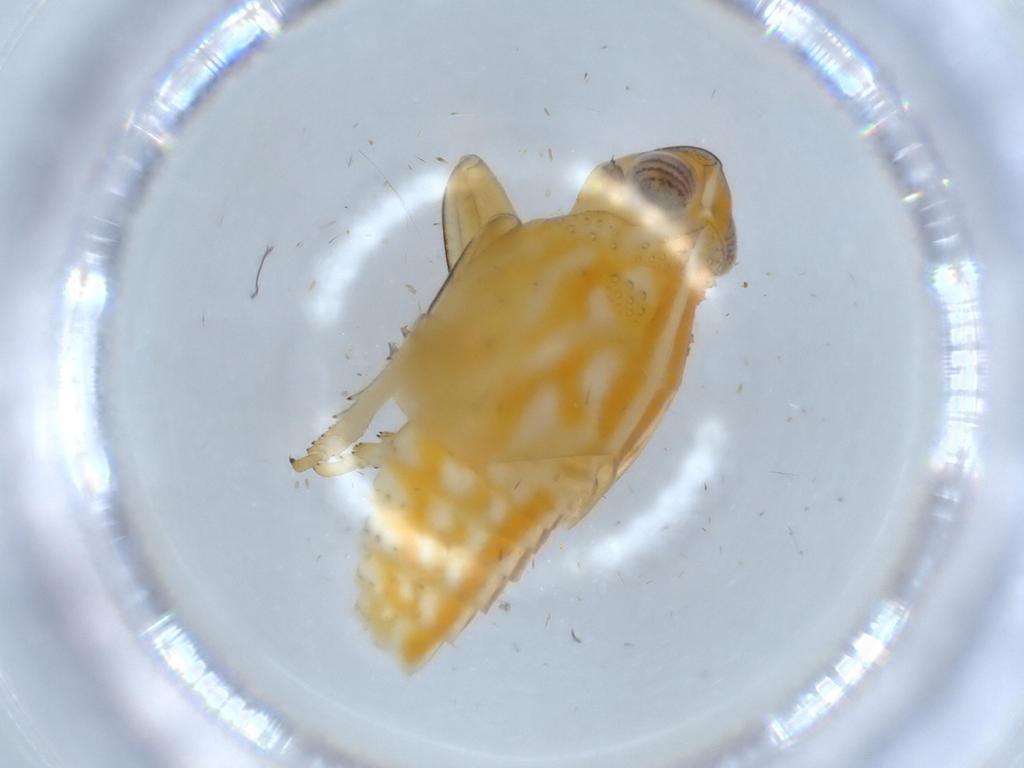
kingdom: Animalia
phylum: Arthropoda
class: Insecta
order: Hemiptera
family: Issidae
